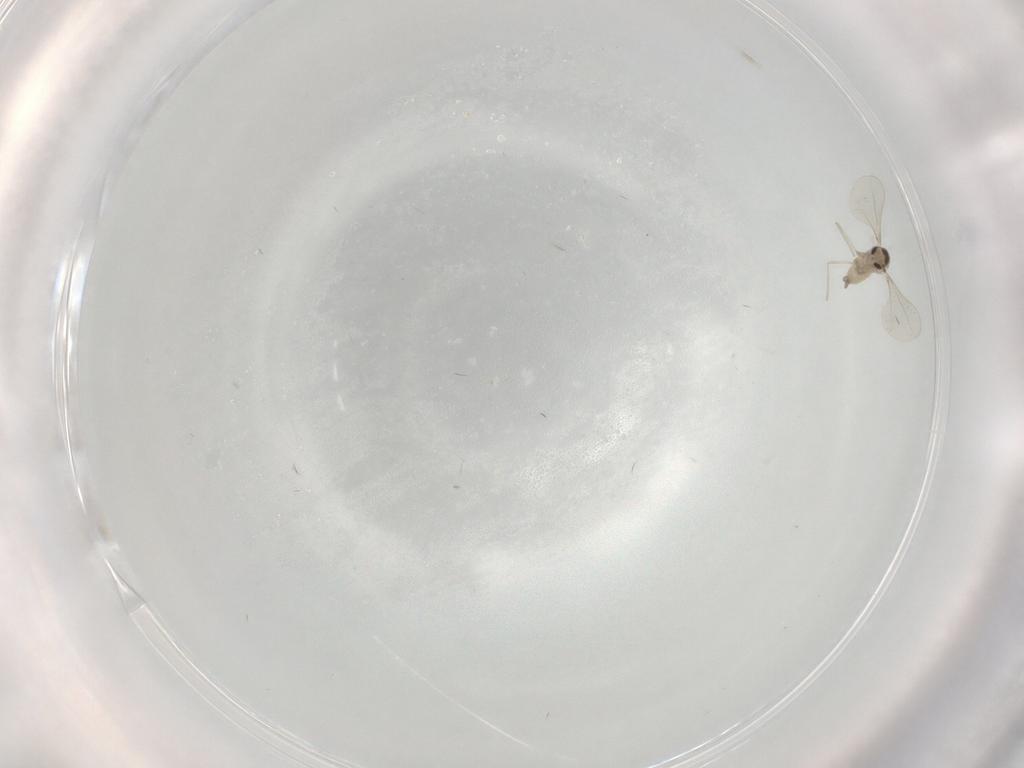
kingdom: Animalia
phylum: Arthropoda
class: Insecta
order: Diptera
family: Cecidomyiidae
